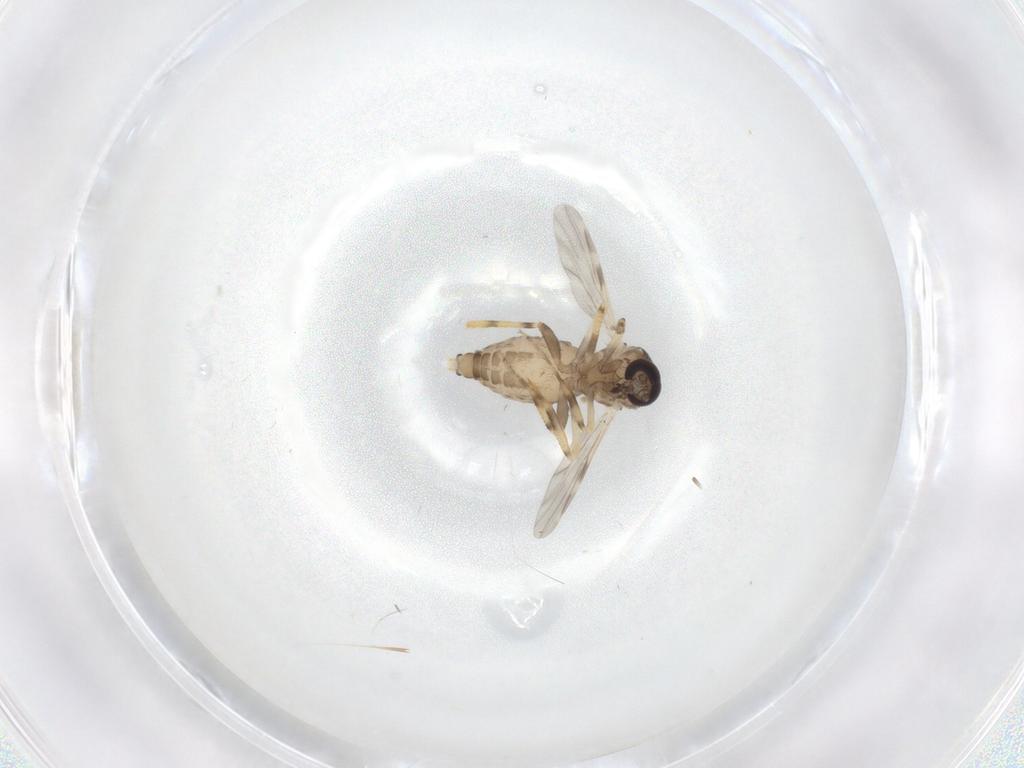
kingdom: Animalia
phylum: Arthropoda
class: Insecta
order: Diptera
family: Ceratopogonidae
